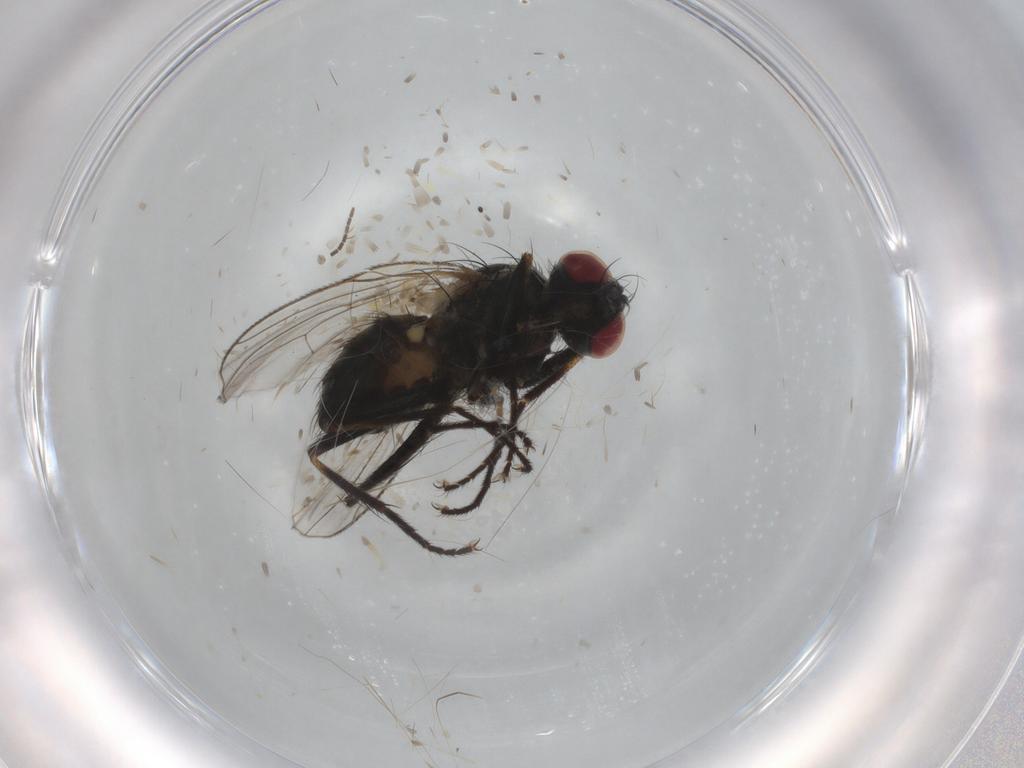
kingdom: Animalia
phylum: Arthropoda
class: Insecta
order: Diptera
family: Muscidae
